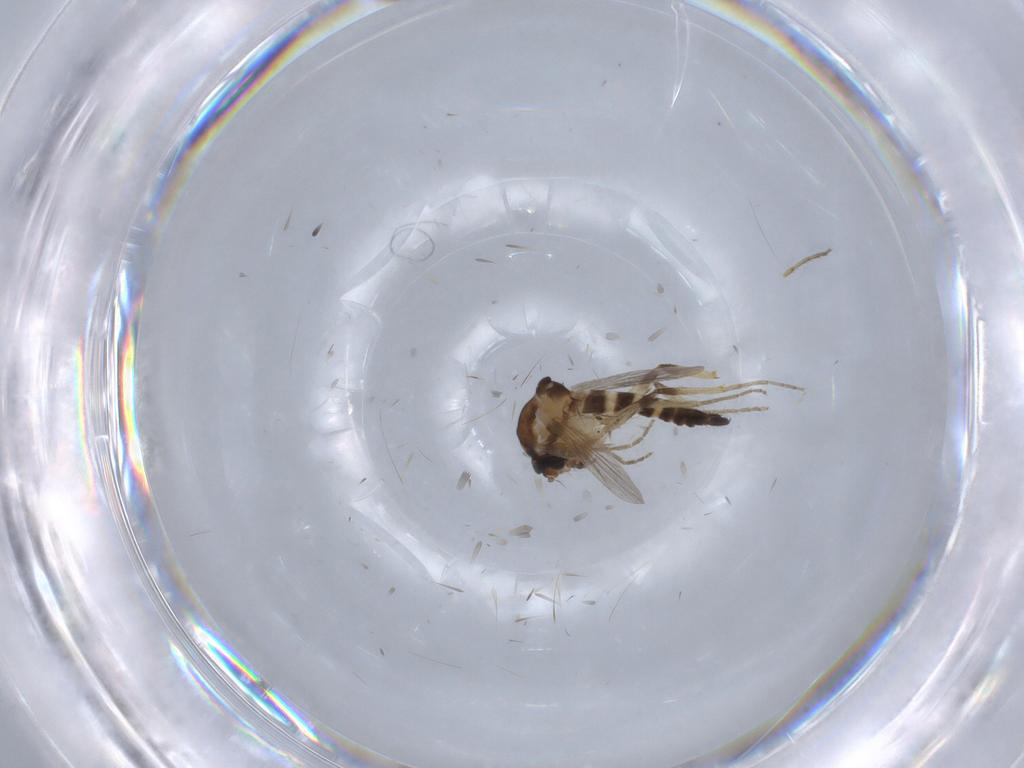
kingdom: Animalia
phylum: Arthropoda
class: Insecta
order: Diptera
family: Ceratopogonidae
